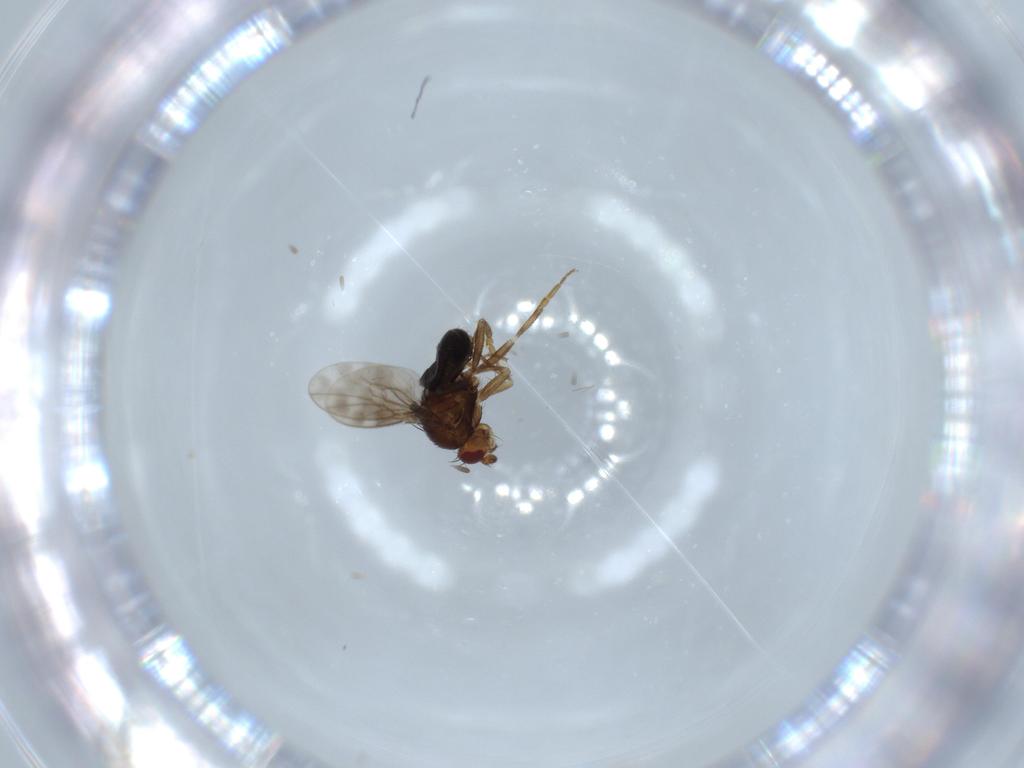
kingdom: Animalia
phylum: Arthropoda
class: Insecta
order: Diptera
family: Sphaeroceridae
